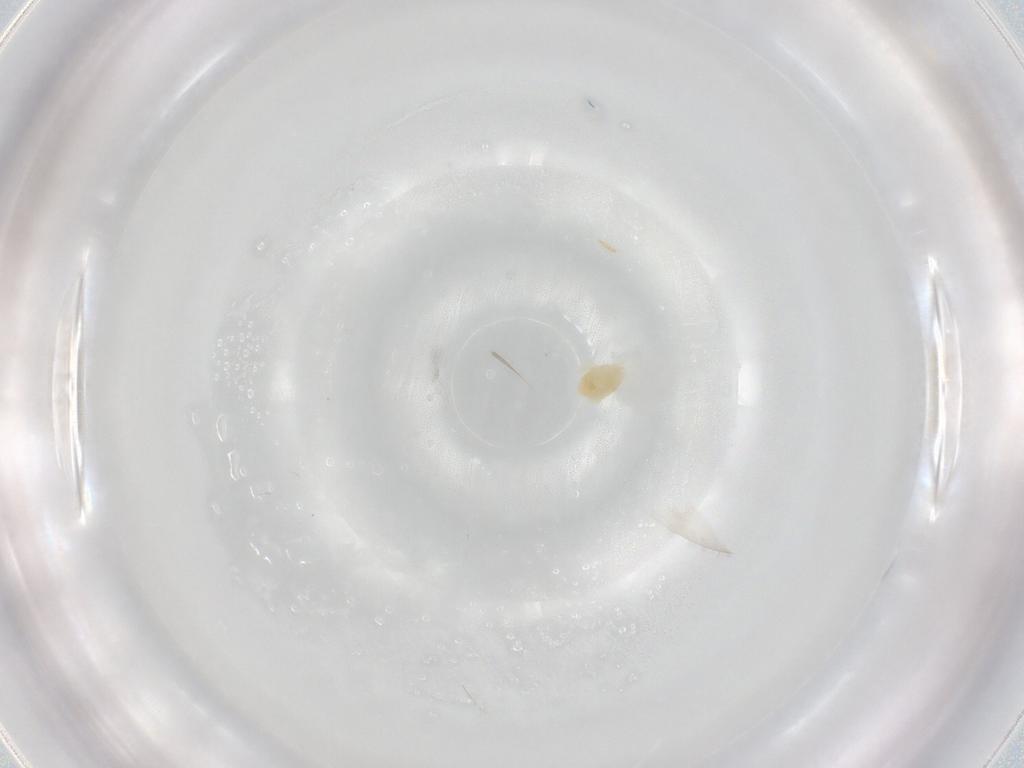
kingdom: Animalia
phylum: Arthropoda
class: Arachnida
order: Trombidiformes
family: Eupodidae
